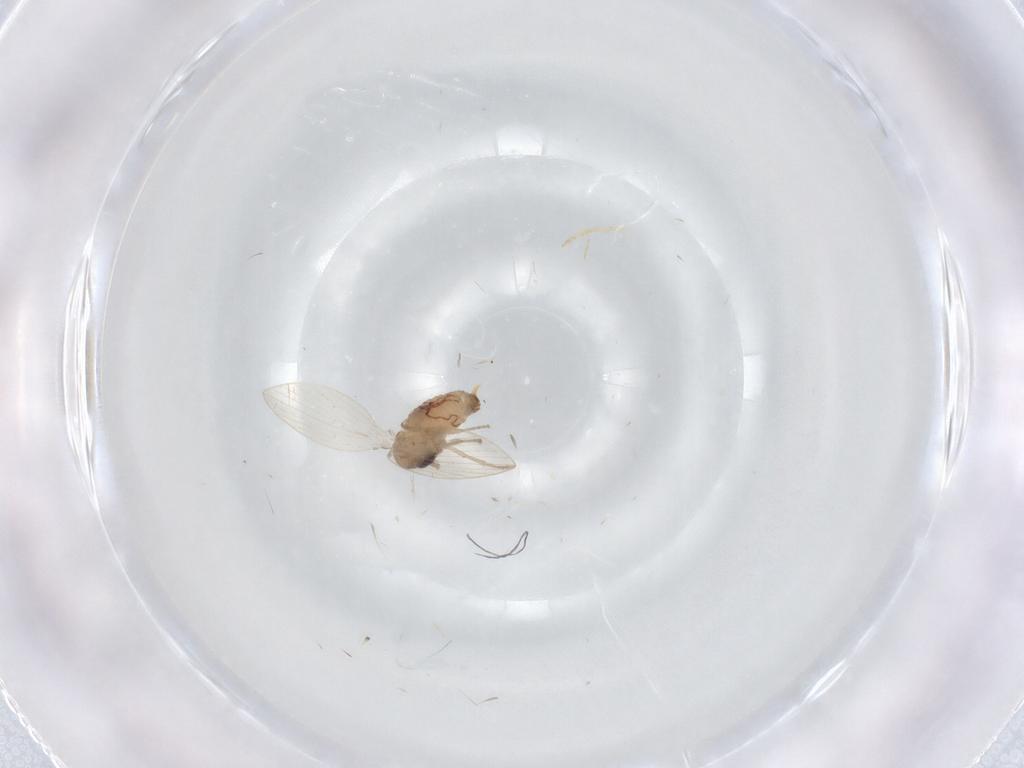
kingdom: Animalia
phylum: Arthropoda
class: Insecta
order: Diptera
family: Psychodidae
